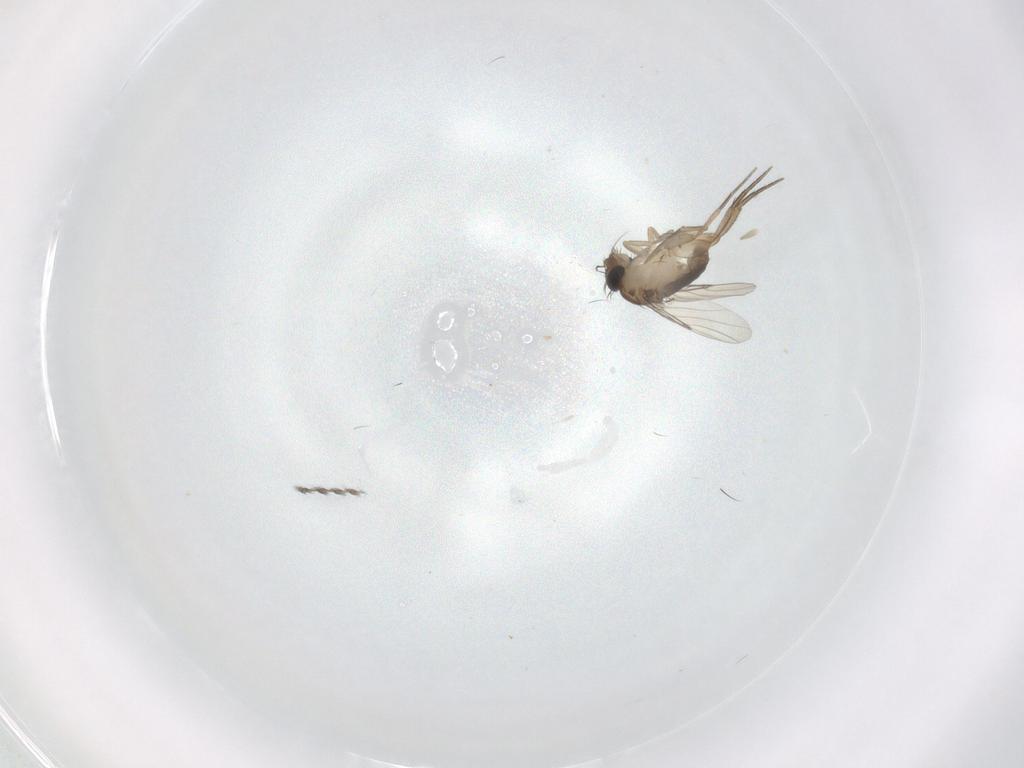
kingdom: Animalia
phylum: Arthropoda
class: Insecta
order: Diptera
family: Phoridae
